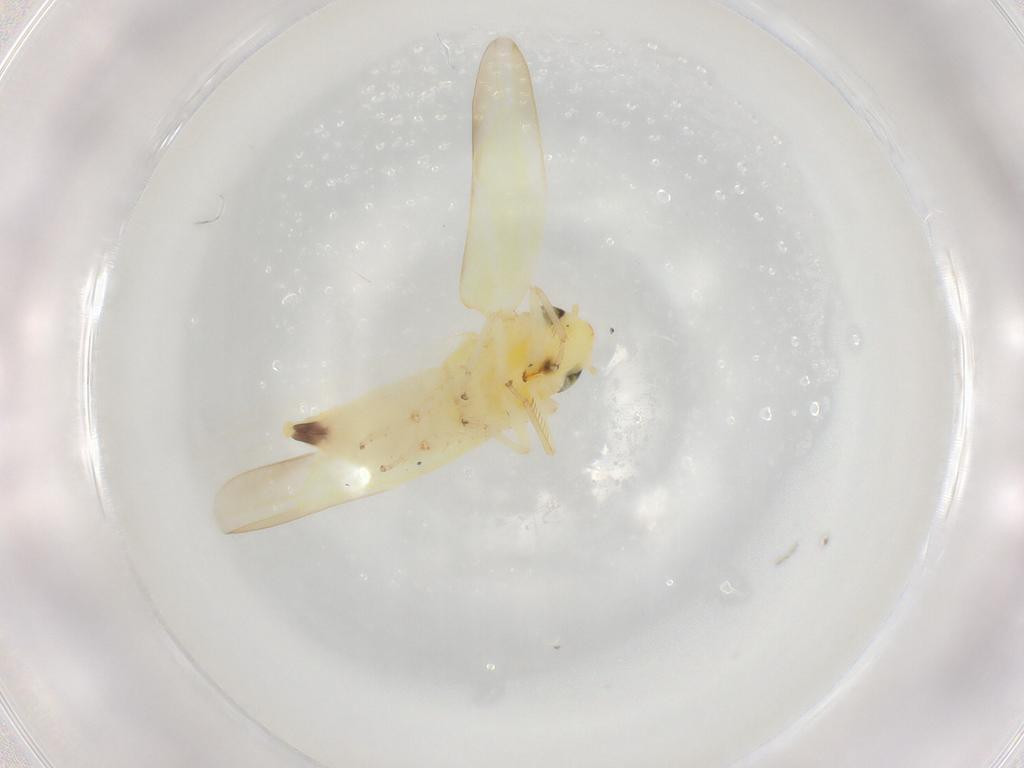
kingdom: Animalia
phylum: Arthropoda
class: Insecta
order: Hemiptera
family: Cicadellidae
